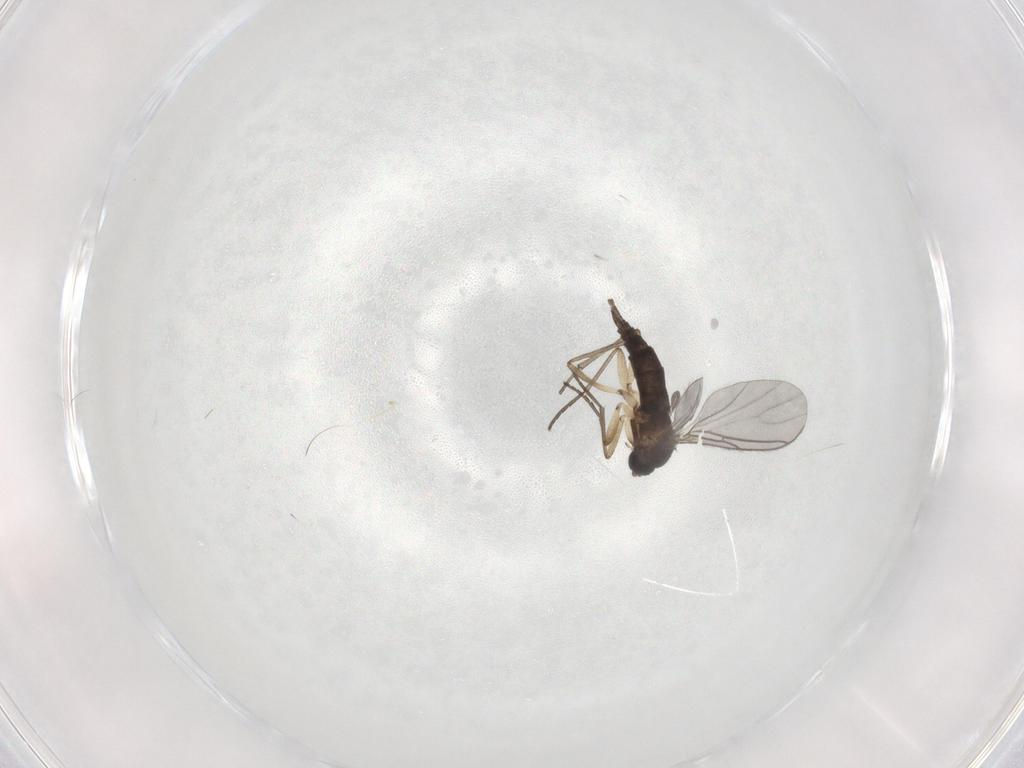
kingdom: Animalia
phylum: Arthropoda
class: Insecta
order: Diptera
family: Sciaridae
